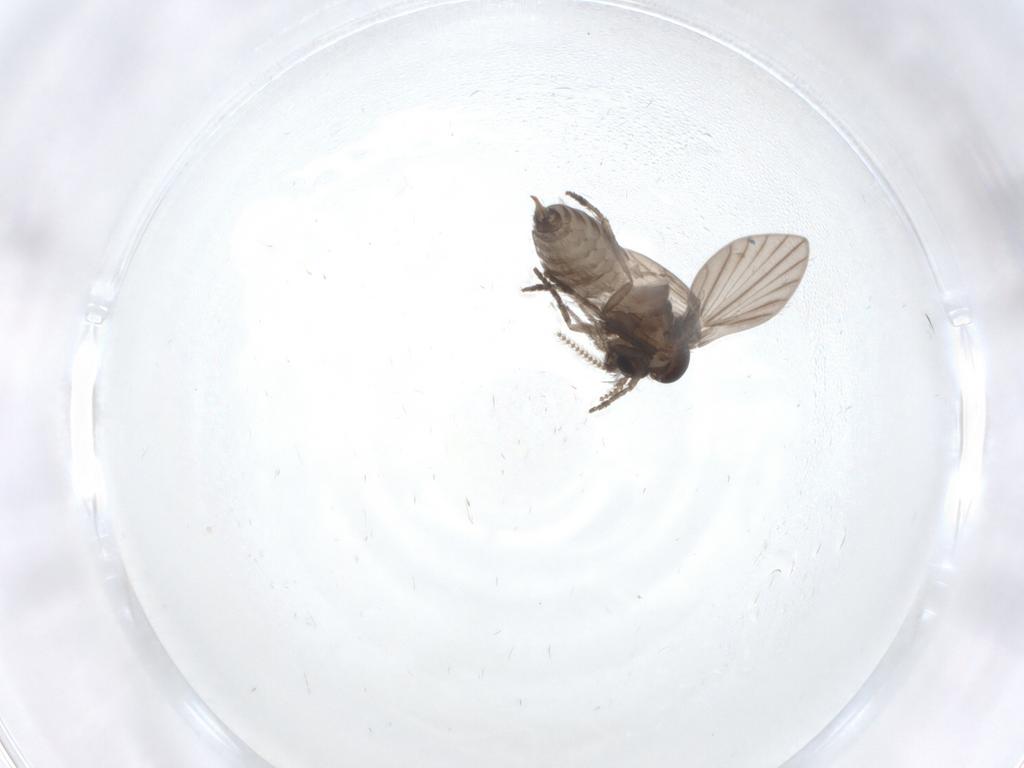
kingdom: Animalia
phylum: Arthropoda
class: Insecta
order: Diptera
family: Psychodidae
